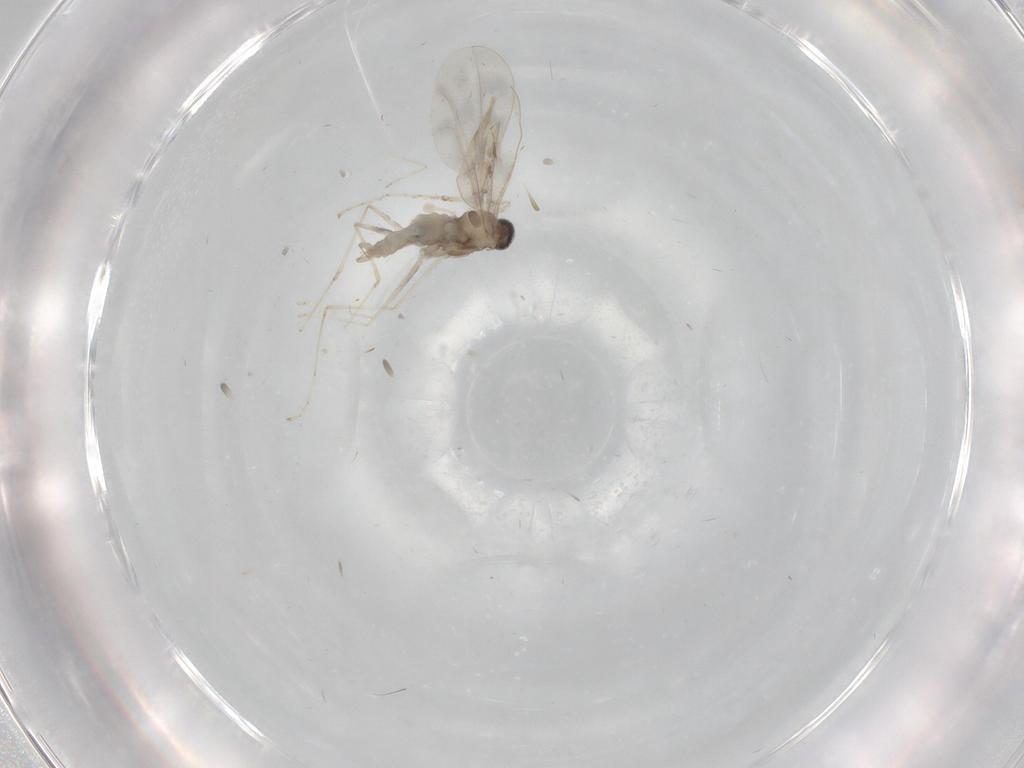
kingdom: Animalia
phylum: Arthropoda
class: Insecta
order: Diptera
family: Cecidomyiidae
